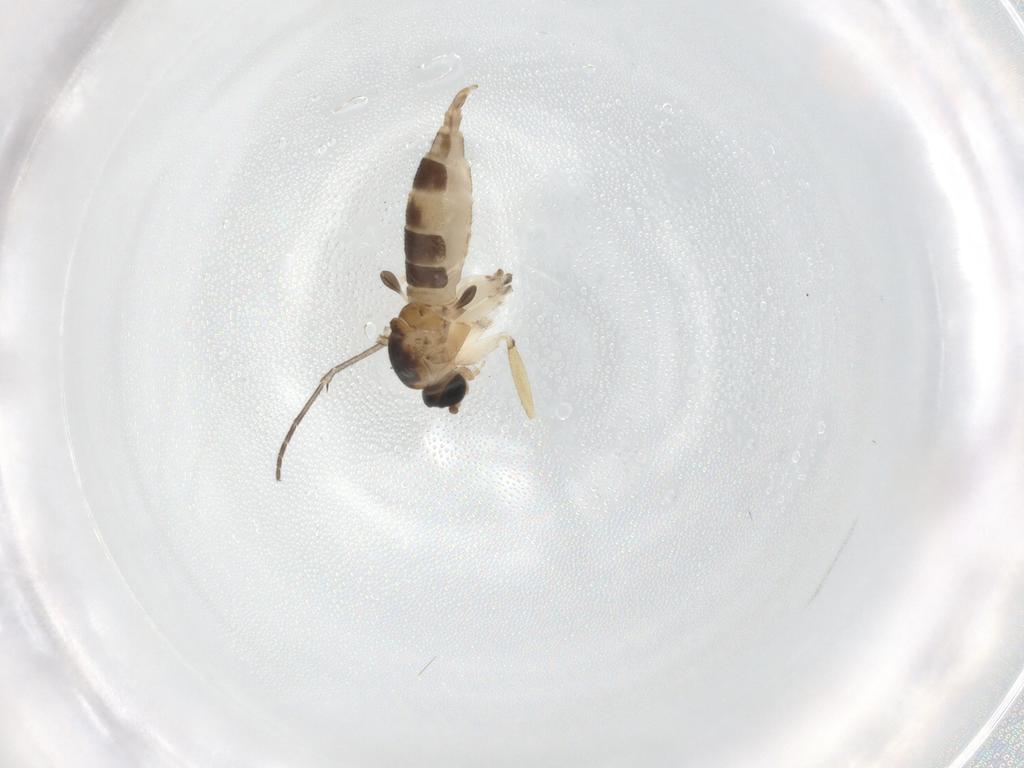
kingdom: Animalia
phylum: Arthropoda
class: Insecta
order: Diptera
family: Sciaridae
